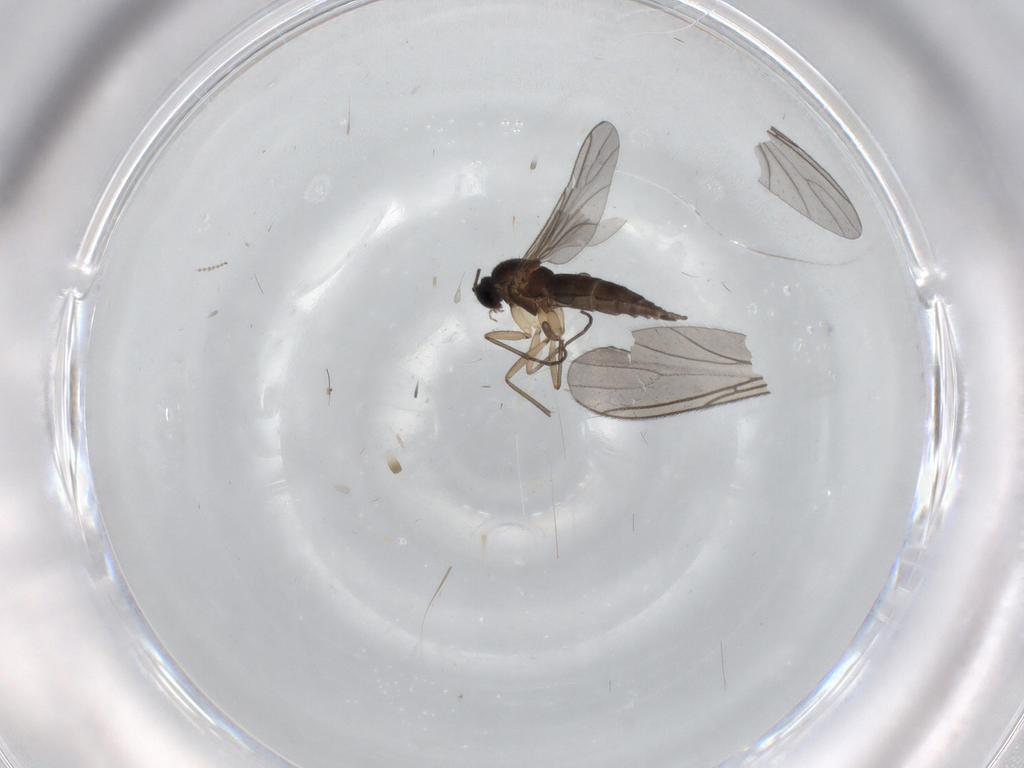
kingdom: Animalia
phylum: Arthropoda
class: Insecta
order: Diptera
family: Sciaridae
